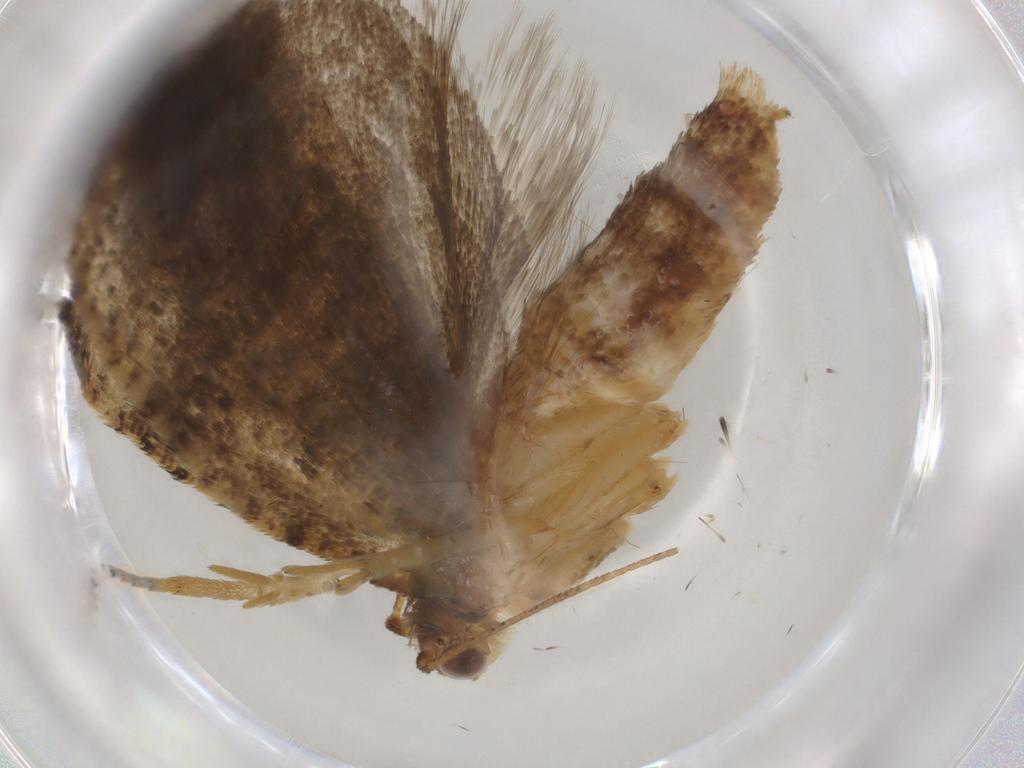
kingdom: Animalia
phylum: Arthropoda
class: Insecta
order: Lepidoptera
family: Tortricidae
